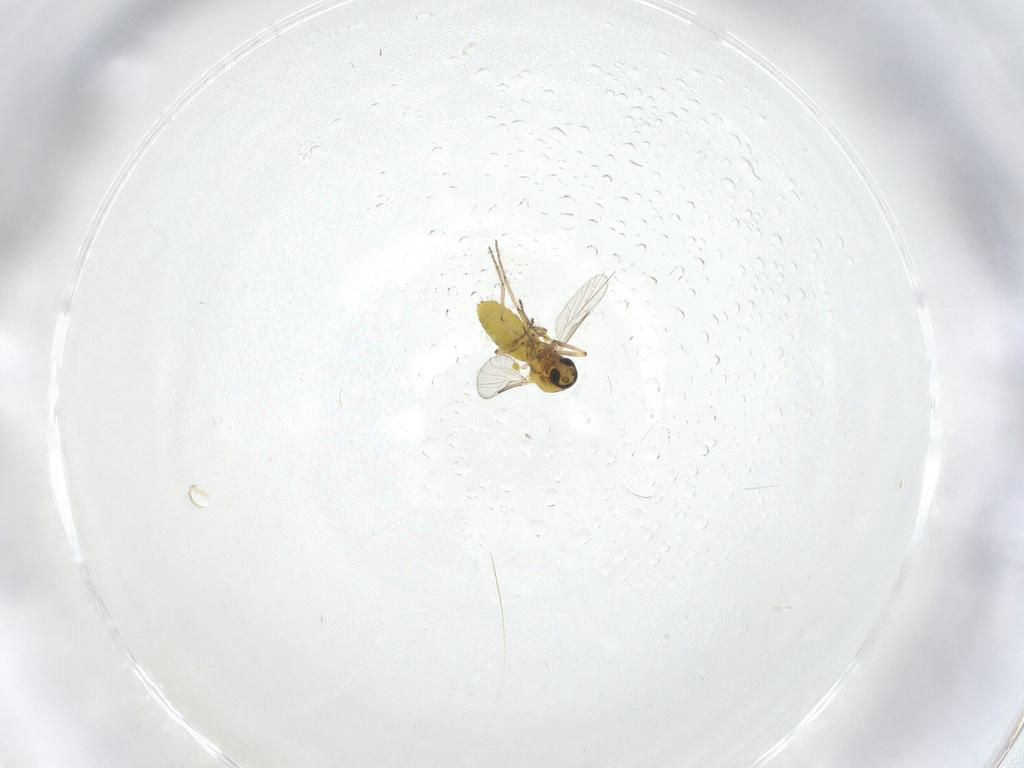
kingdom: Animalia
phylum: Arthropoda
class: Insecta
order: Diptera
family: Ceratopogonidae
